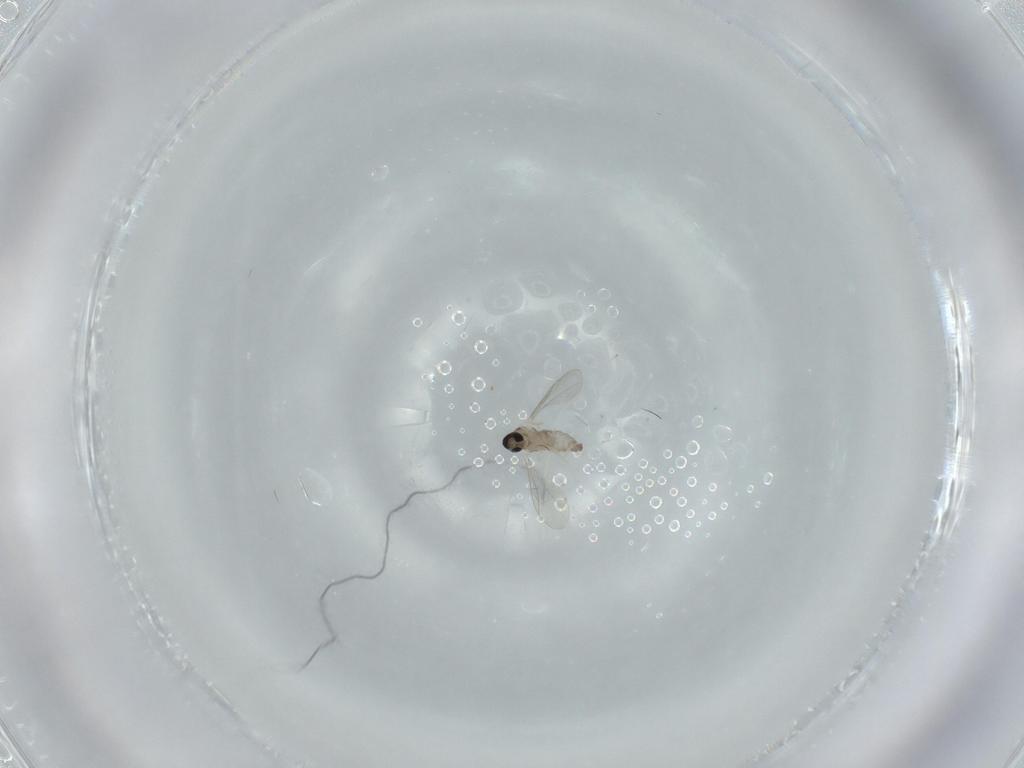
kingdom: Animalia
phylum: Arthropoda
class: Insecta
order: Diptera
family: Cecidomyiidae
